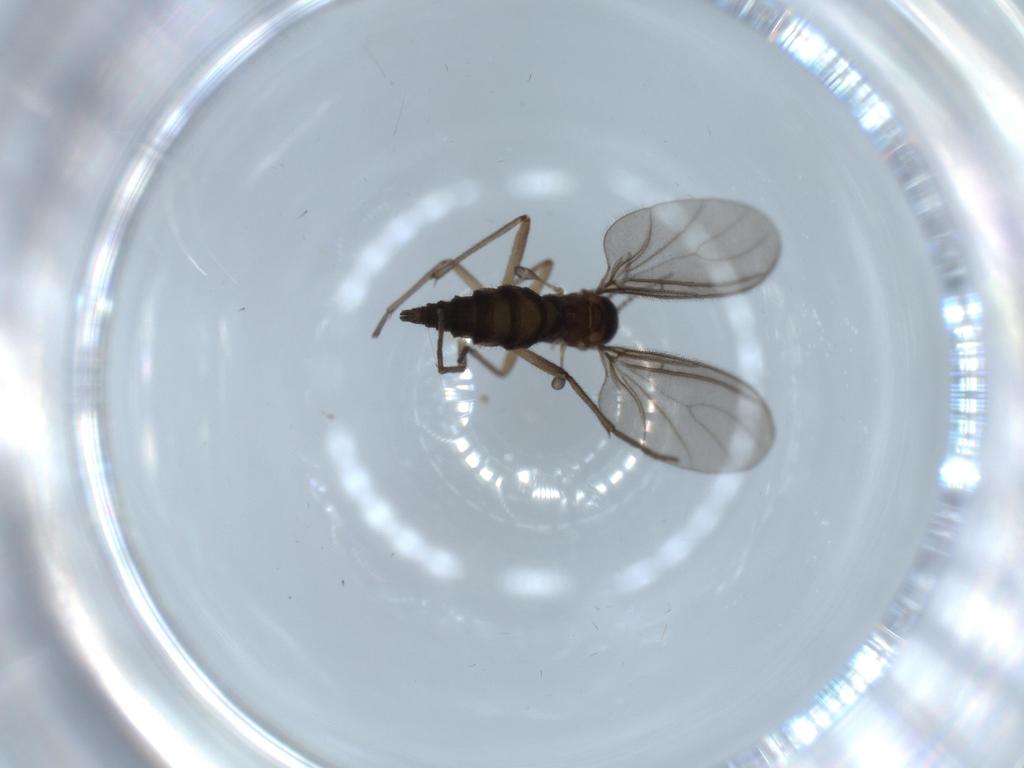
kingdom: Animalia
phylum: Arthropoda
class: Insecta
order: Diptera
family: Sciaridae
